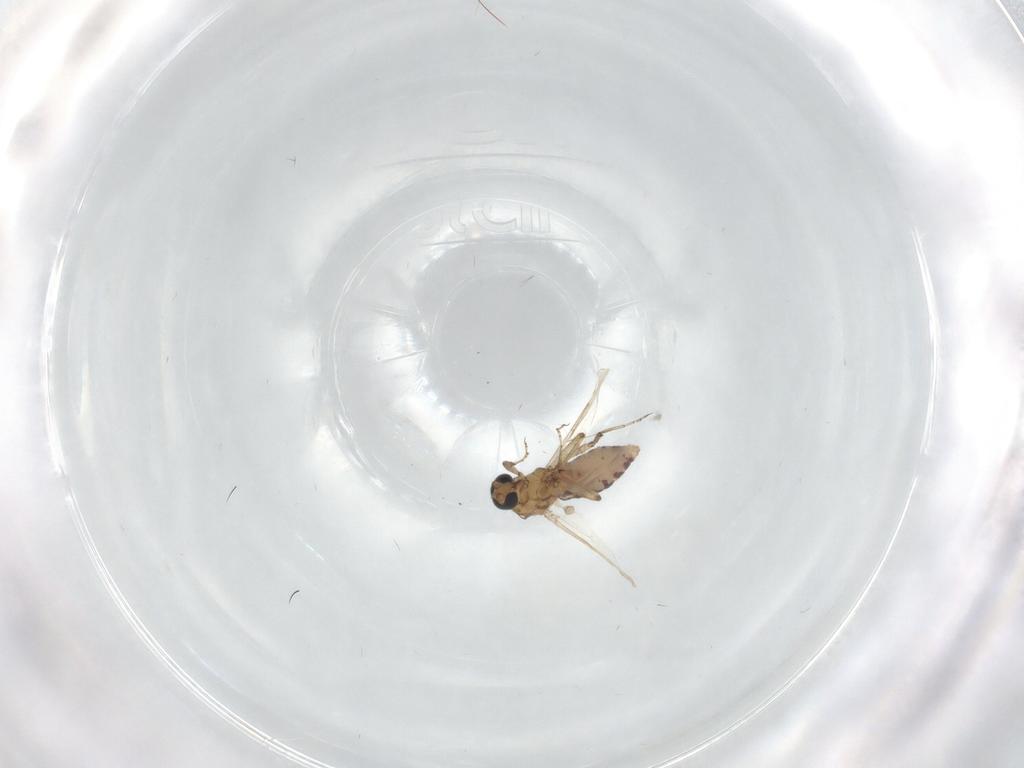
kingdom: Animalia
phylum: Arthropoda
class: Insecta
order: Diptera
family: Ceratopogonidae
